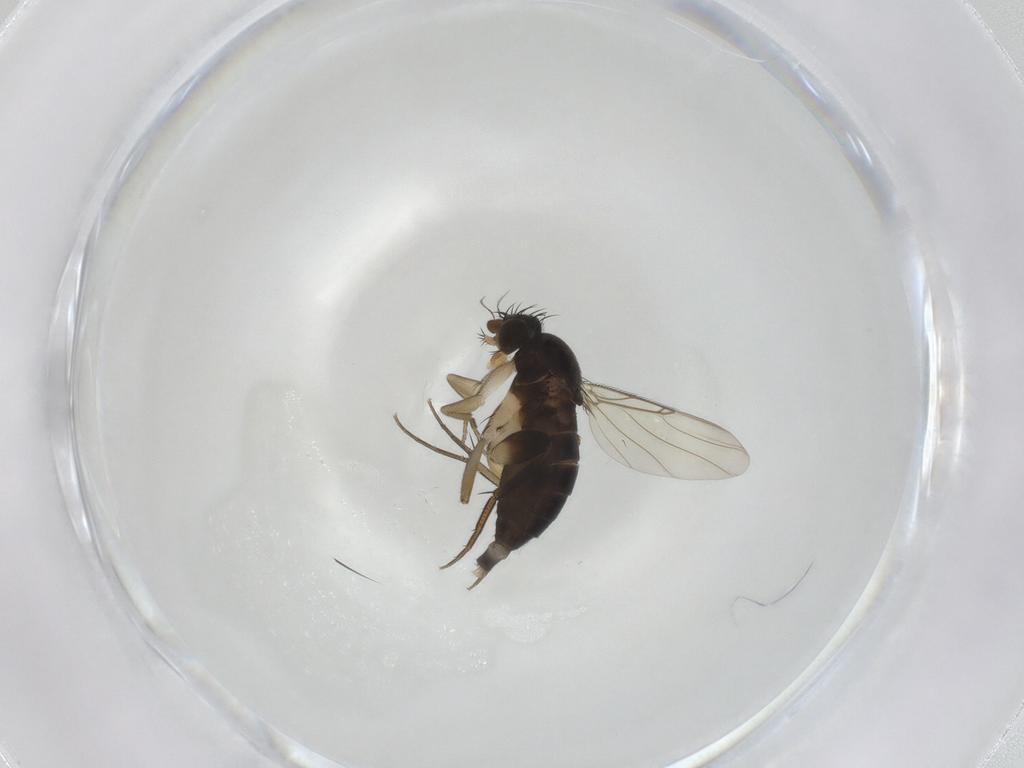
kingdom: Animalia
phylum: Arthropoda
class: Insecta
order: Diptera
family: Phoridae
